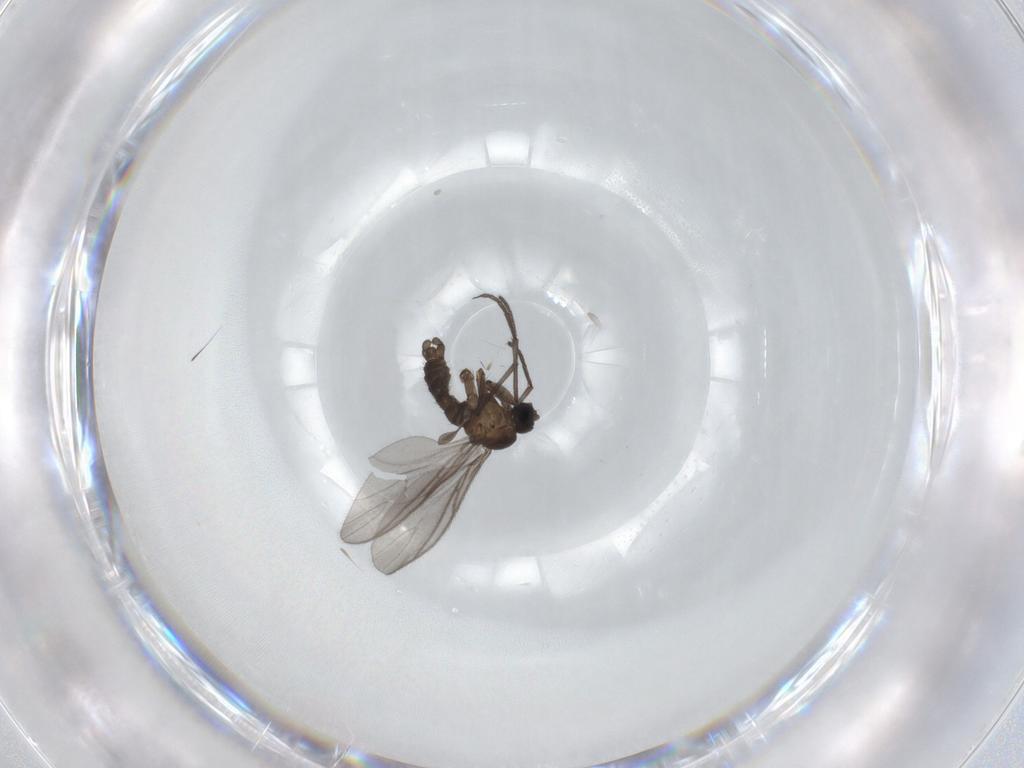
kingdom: Animalia
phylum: Arthropoda
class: Insecta
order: Diptera
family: Chironomidae
